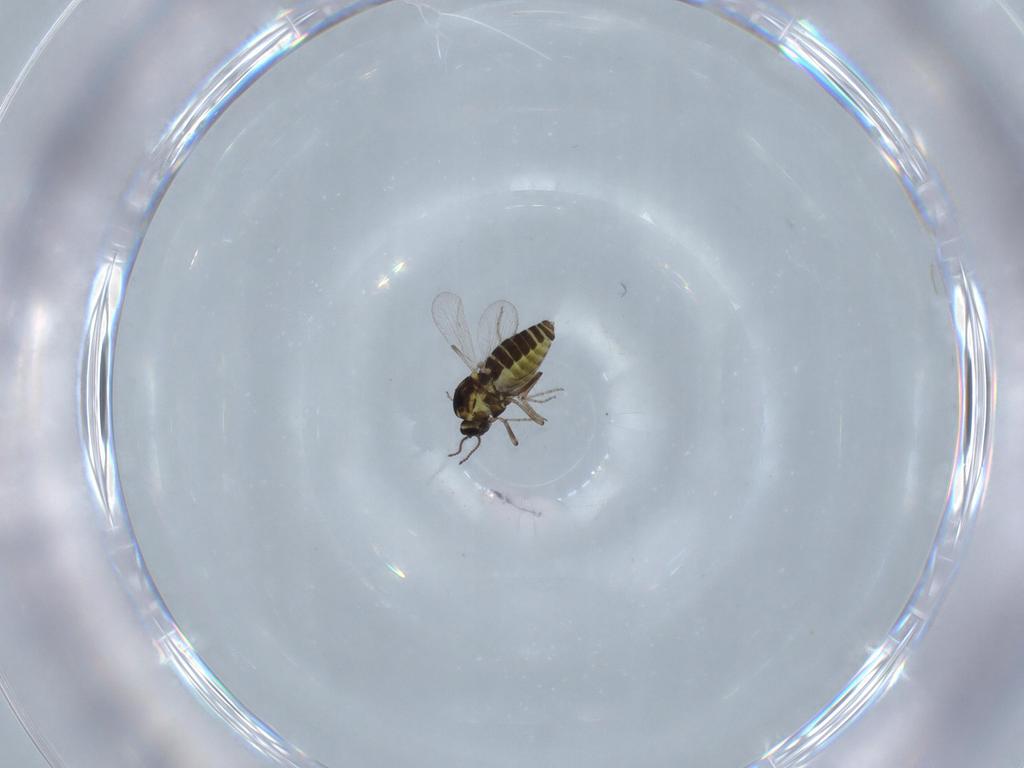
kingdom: Animalia
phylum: Arthropoda
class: Insecta
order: Diptera
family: Ceratopogonidae
